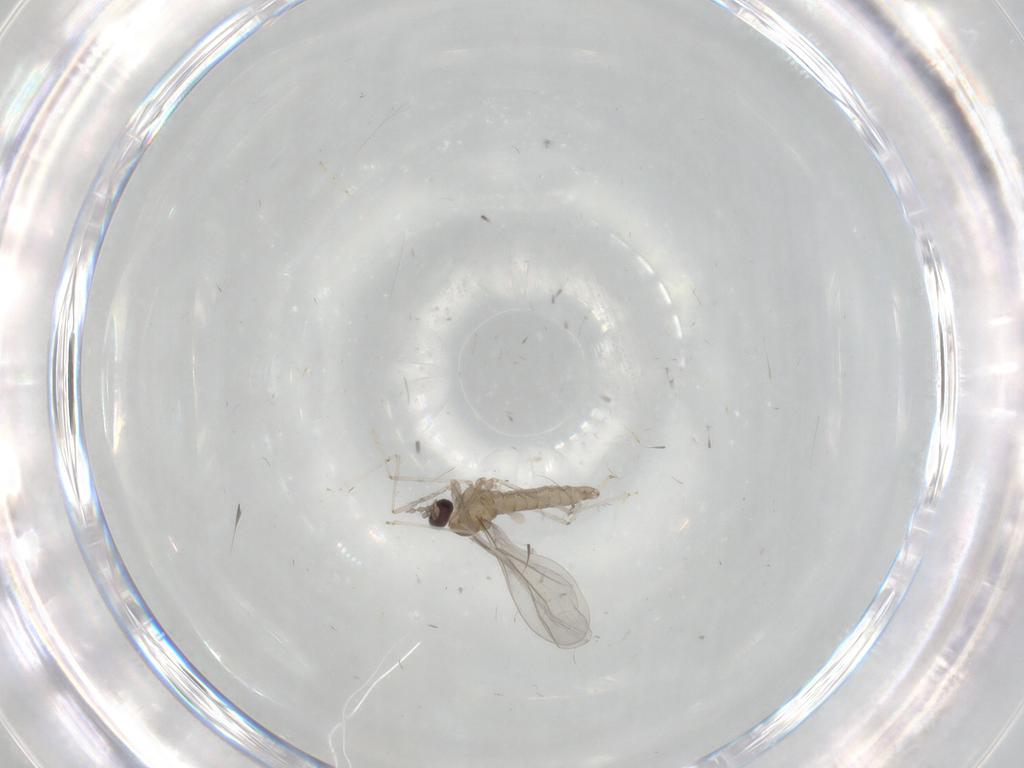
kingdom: Animalia
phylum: Arthropoda
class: Insecta
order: Diptera
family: Cecidomyiidae
